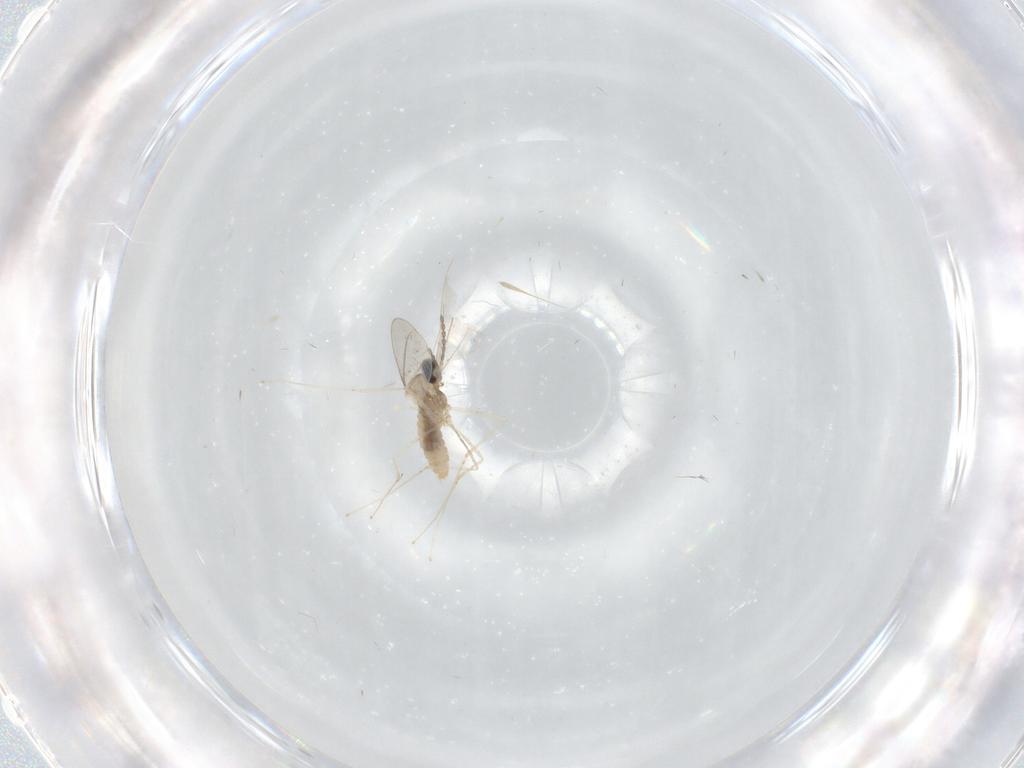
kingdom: Animalia
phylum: Arthropoda
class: Insecta
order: Diptera
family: Cecidomyiidae
